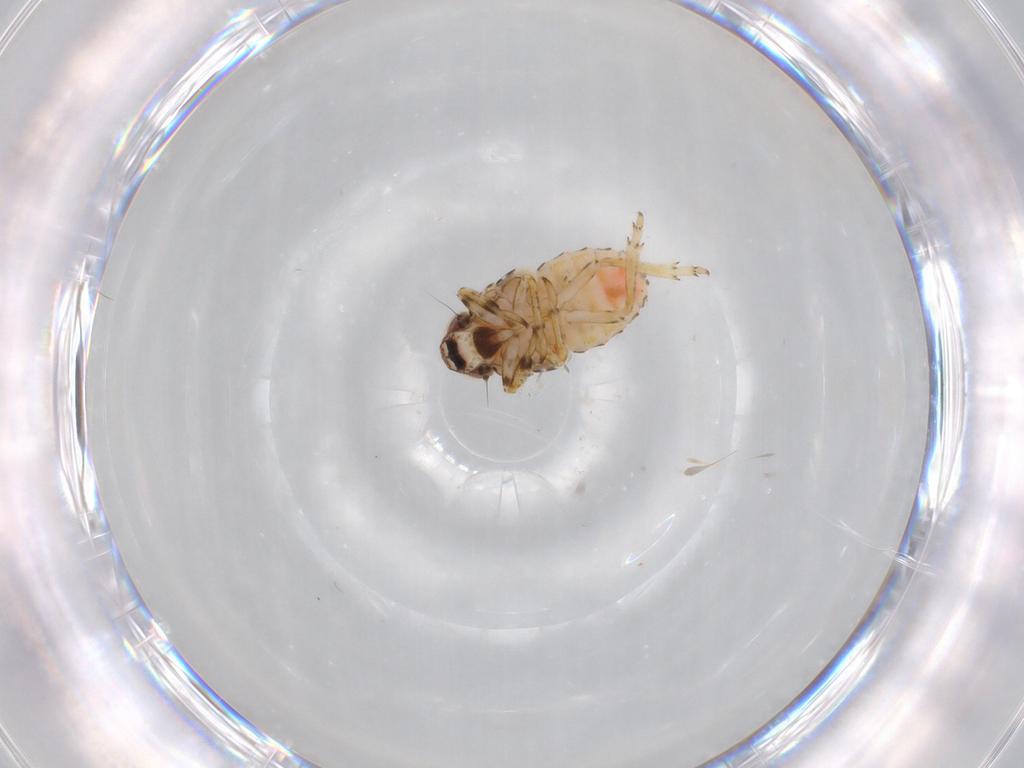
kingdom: Animalia
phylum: Arthropoda
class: Insecta
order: Hemiptera
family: Issidae
